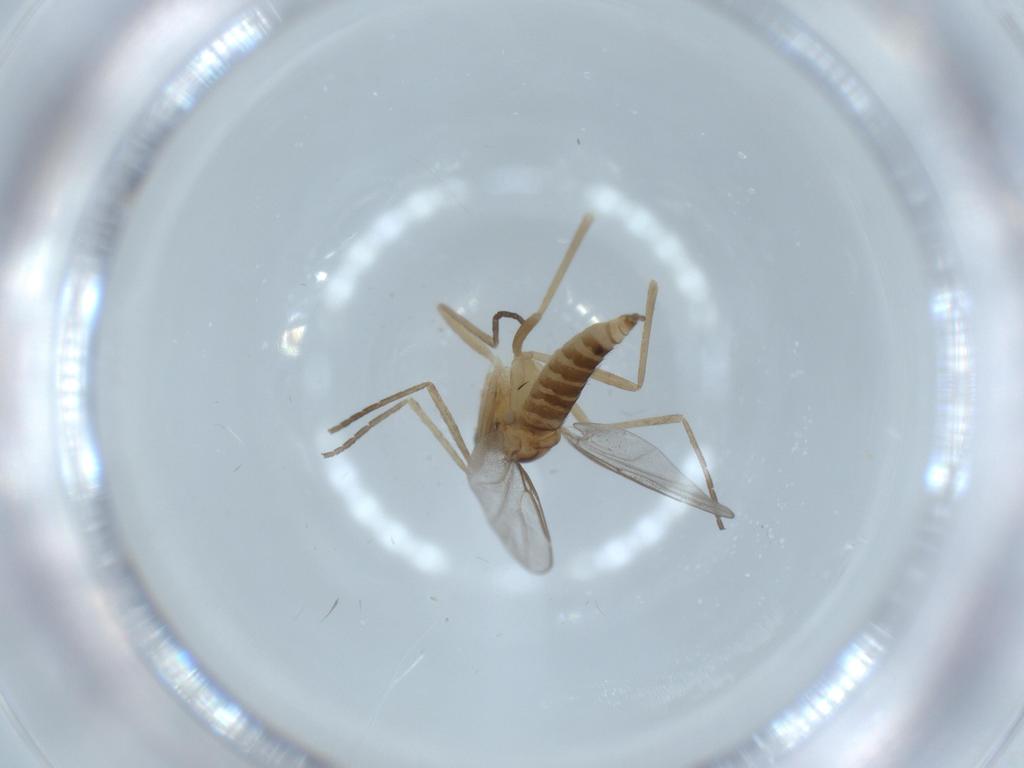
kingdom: Animalia
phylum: Arthropoda
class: Insecta
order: Diptera
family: Cecidomyiidae
